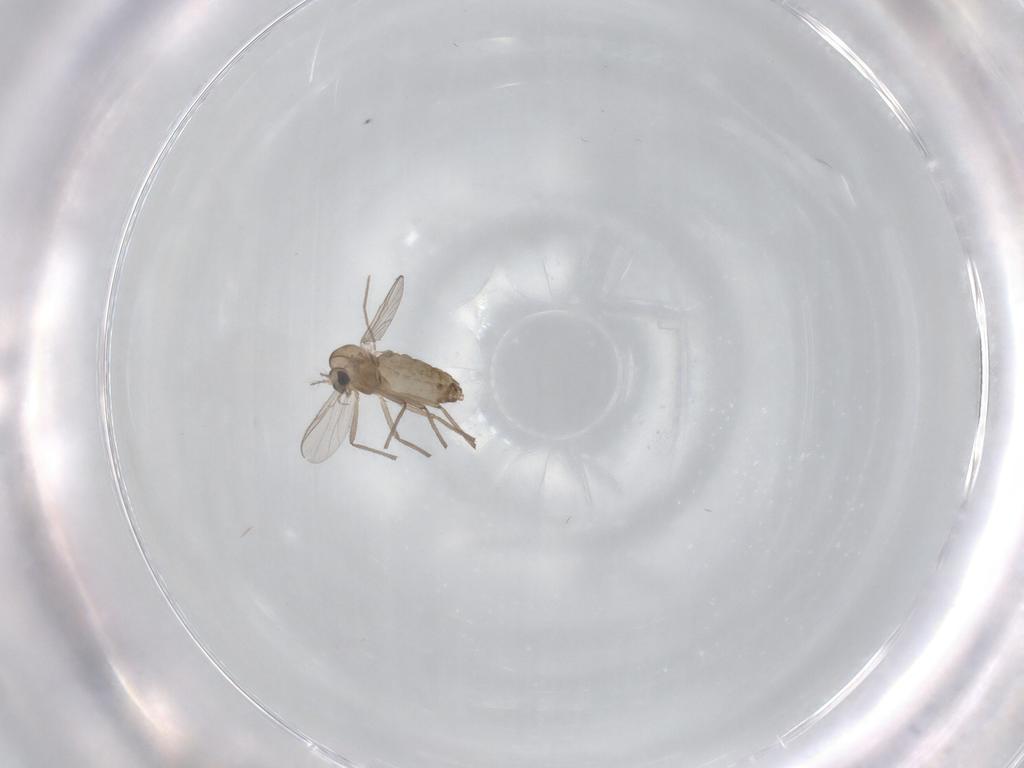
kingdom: Animalia
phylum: Arthropoda
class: Insecta
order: Diptera
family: Chironomidae
